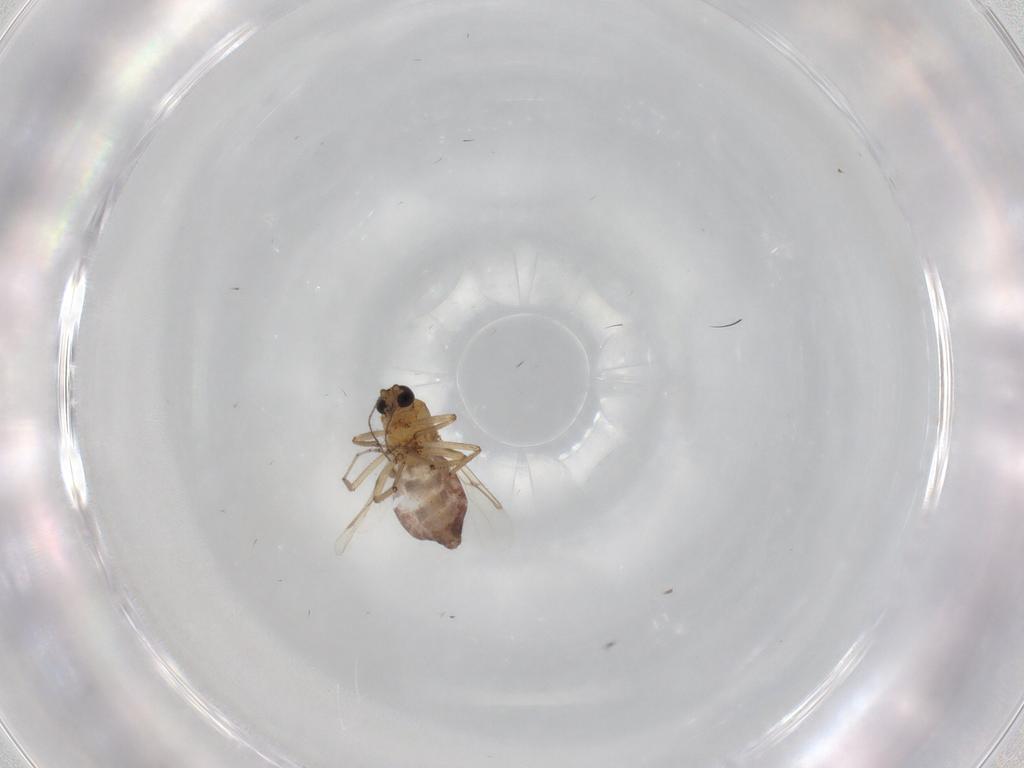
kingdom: Animalia
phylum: Arthropoda
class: Insecta
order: Diptera
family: Ceratopogonidae
